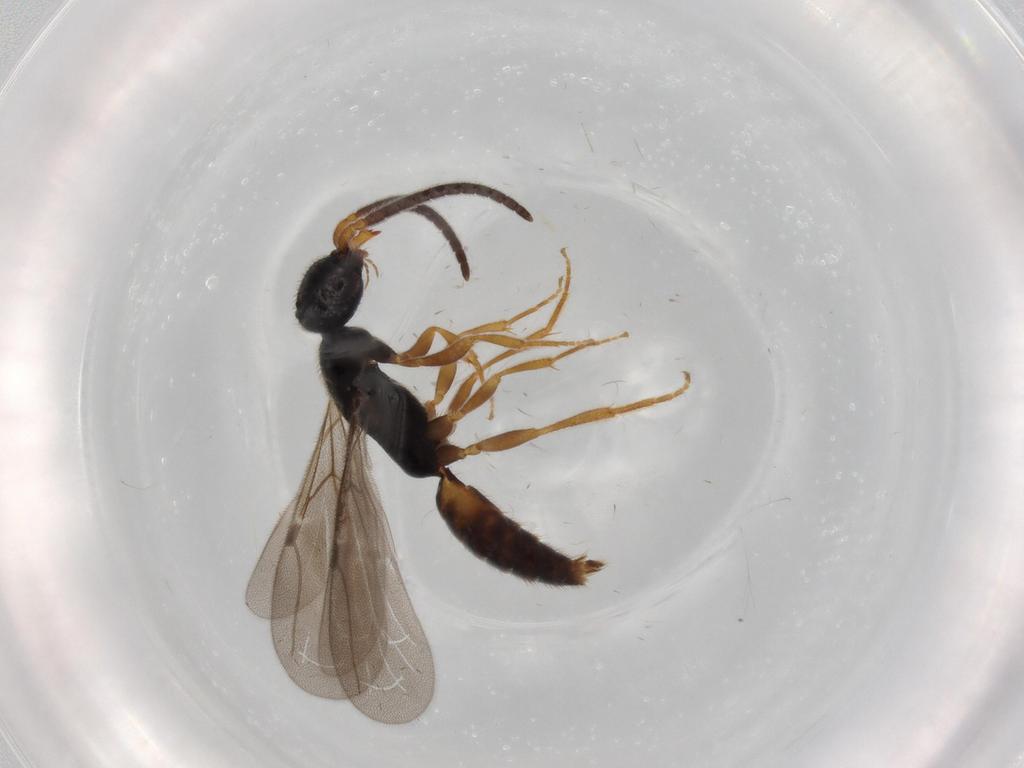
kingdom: Animalia
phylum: Arthropoda
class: Insecta
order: Hymenoptera
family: Bethylidae
